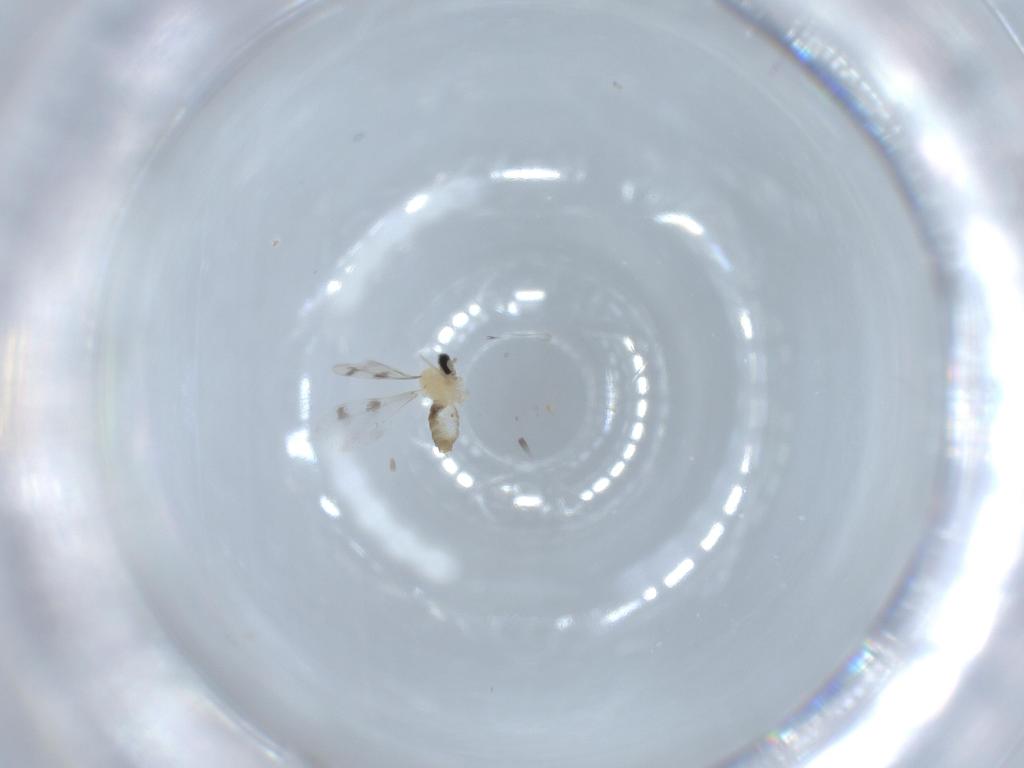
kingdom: Animalia
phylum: Arthropoda
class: Insecta
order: Diptera
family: Cecidomyiidae
